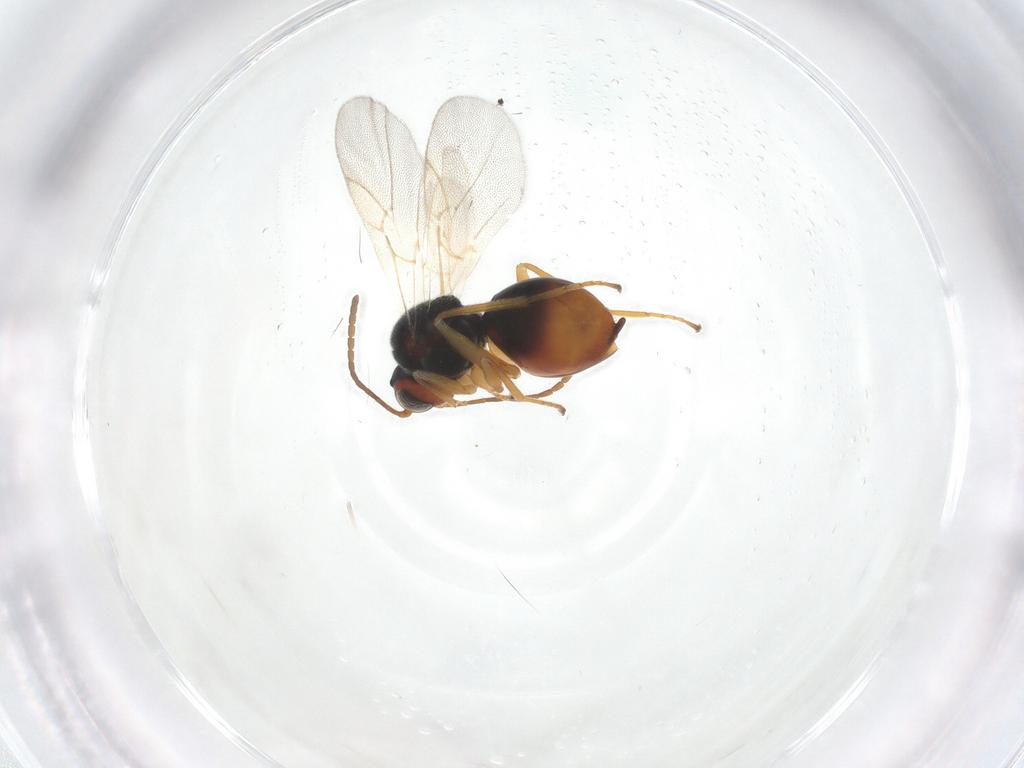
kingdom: Animalia
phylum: Arthropoda
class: Insecta
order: Hymenoptera
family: Cynipidae
